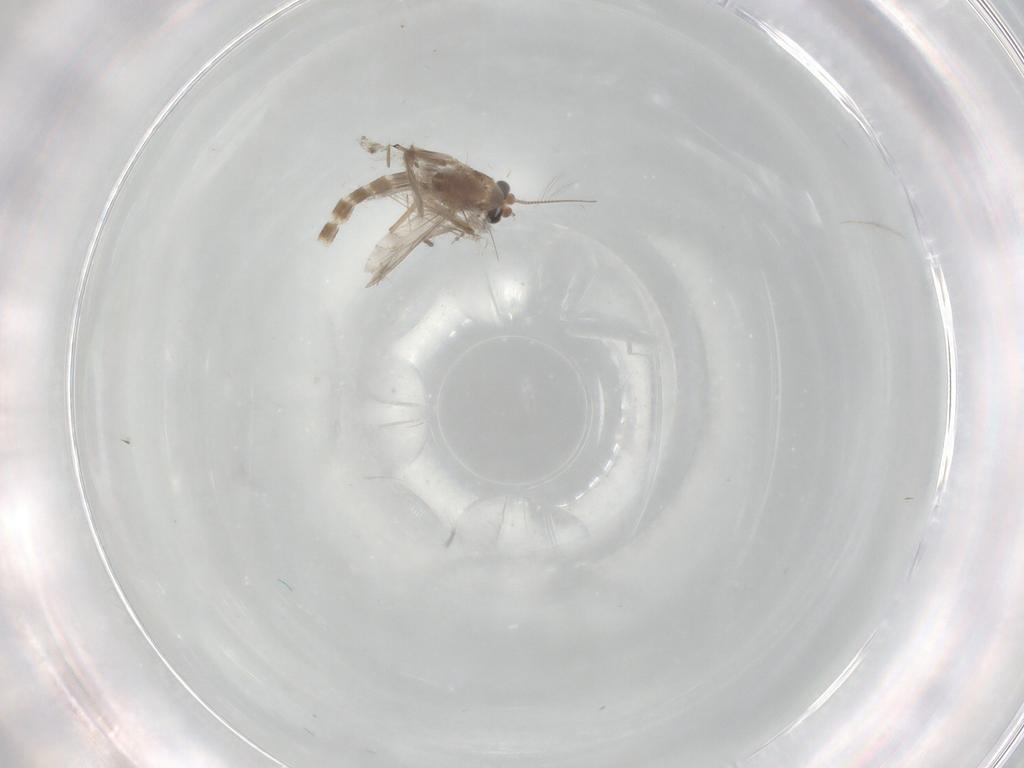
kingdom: Animalia
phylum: Arthropoda
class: Insecta
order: Diptera
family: Chironomidae
